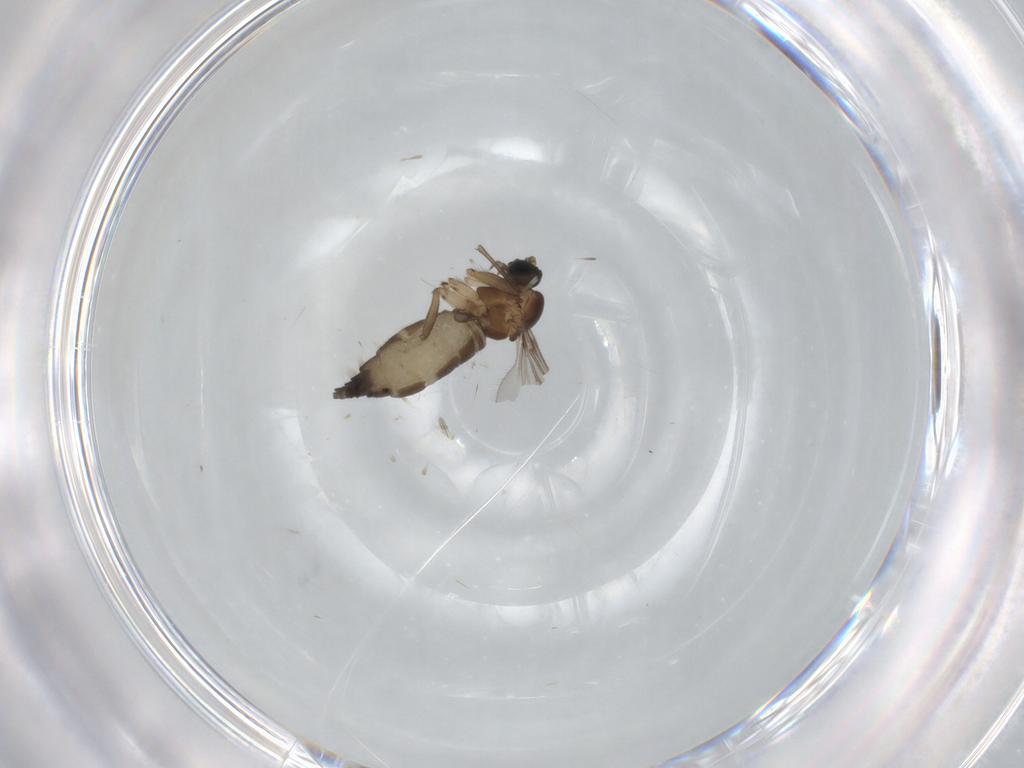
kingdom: Animalia
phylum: Arthropoda
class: Insecta
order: Diptera
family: Sciaridae
